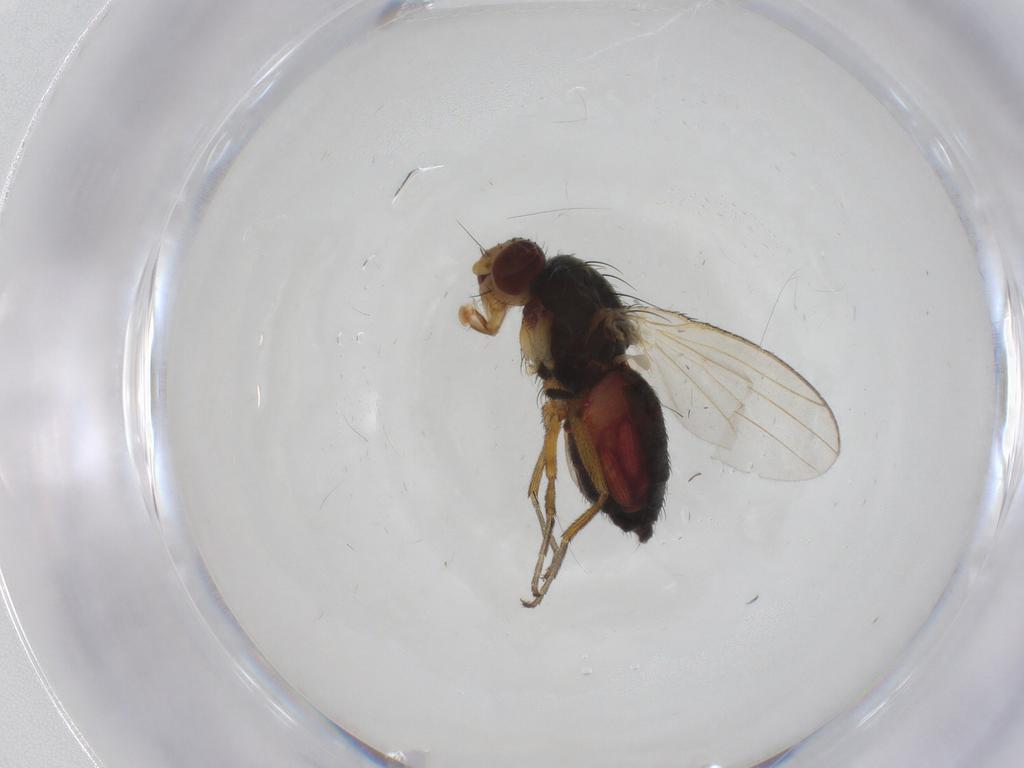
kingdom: Animalia
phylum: Arthropoda
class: Insecta
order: Diptera
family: Heleomyzidae
